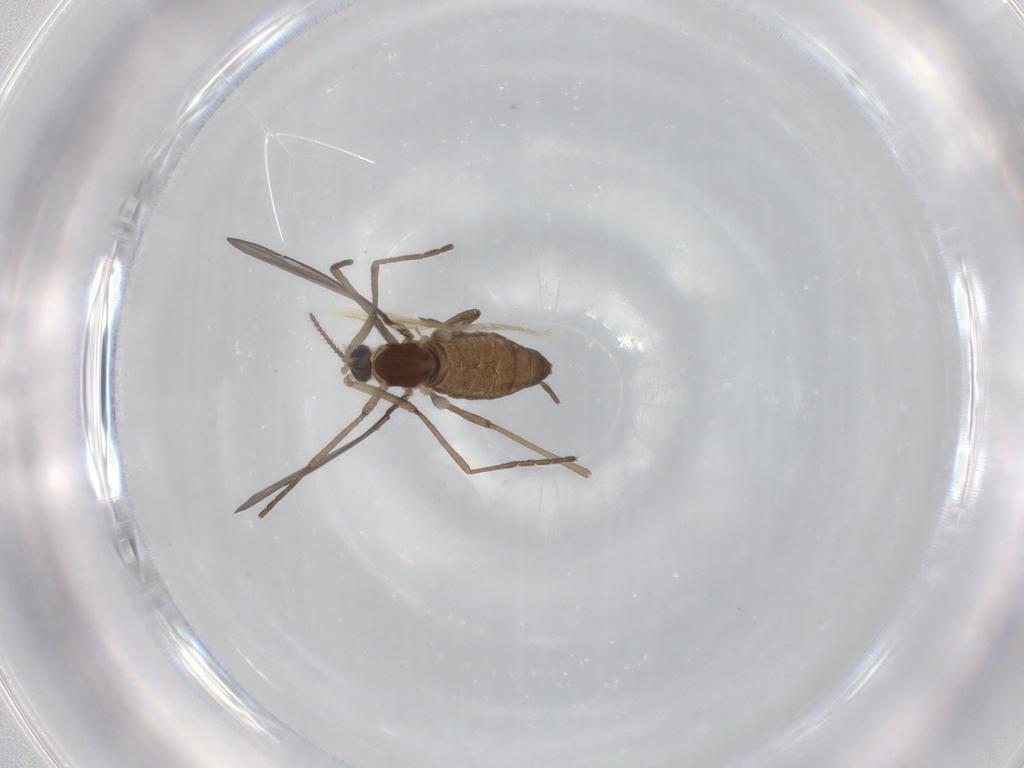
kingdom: Animalia
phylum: Arthropoda
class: Insecta
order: Diptera
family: Cecidomyiidae
